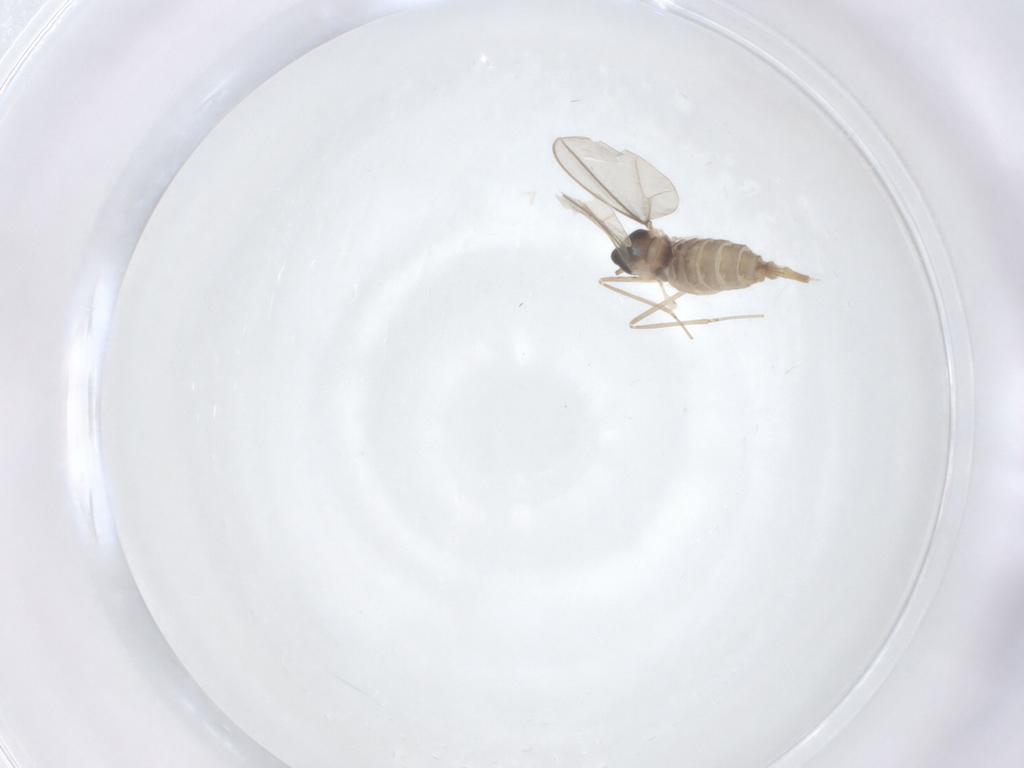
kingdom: Animalia
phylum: Arthropoda
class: Insecta
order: Diptera
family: Cecidomyiidae
